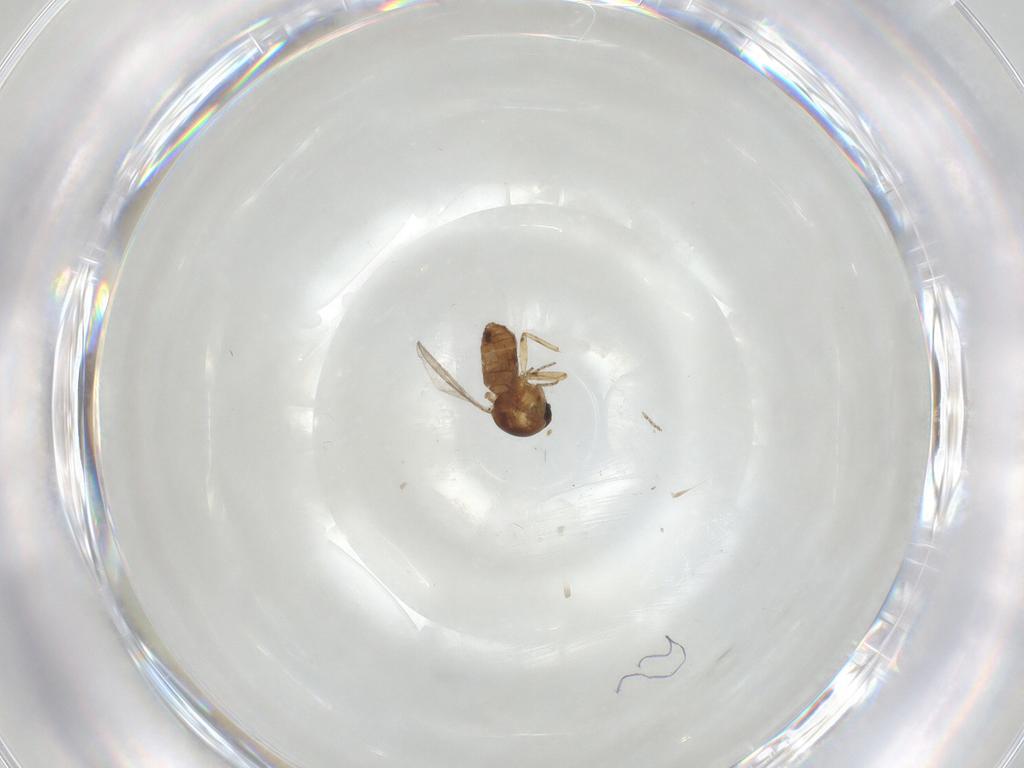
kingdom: Animalia
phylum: Arthropoda
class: Insecta
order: Diptera
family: Ceratopogonidae
